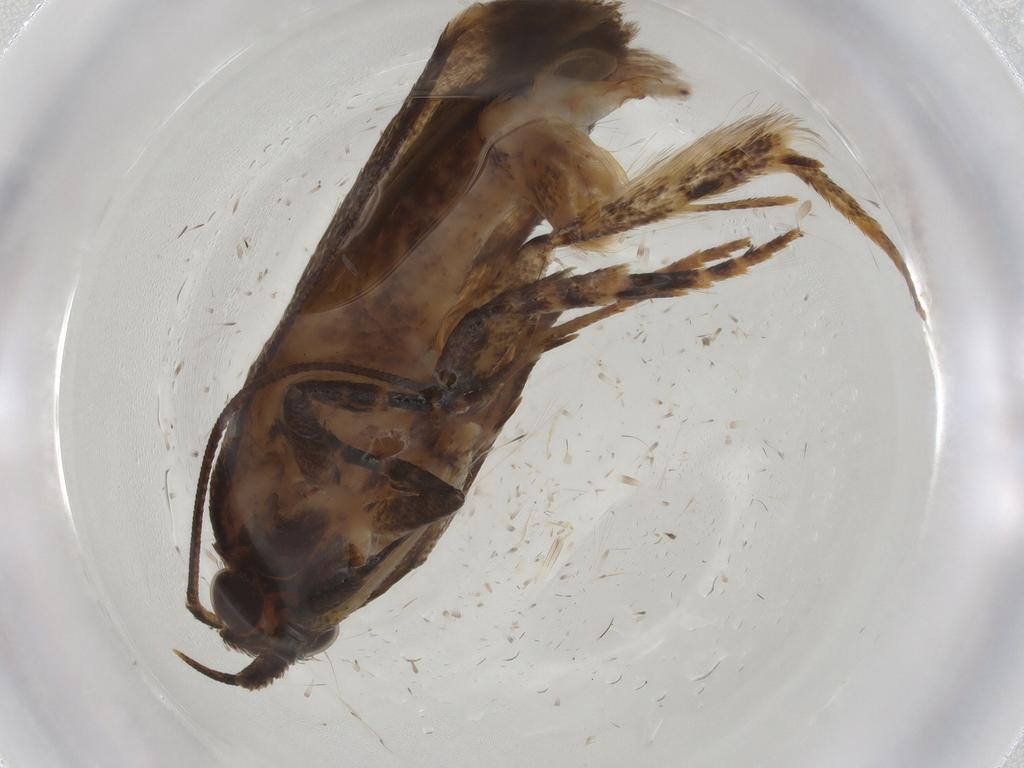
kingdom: Animalia
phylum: Arthropoda
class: Insecta
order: Lepidoptera
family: Gelechiidae
